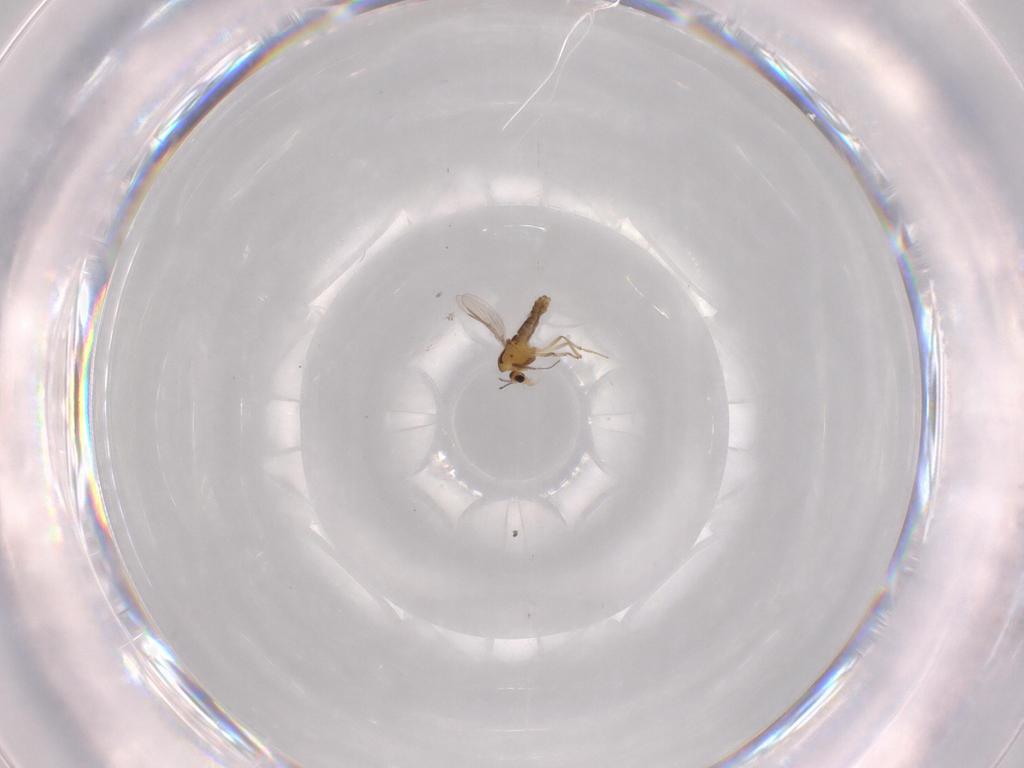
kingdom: Animalia
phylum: Arthropoda
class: Insecta
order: Diptera
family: Chironomidae
